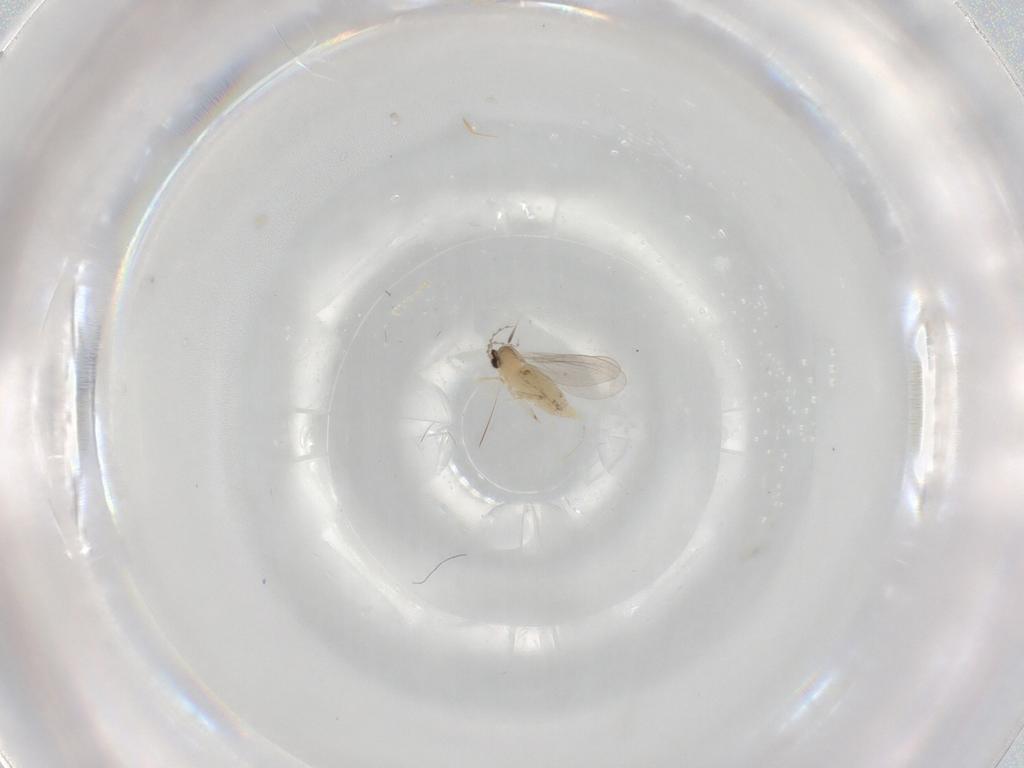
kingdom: Animalia
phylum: Arthropoda
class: Insecta
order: Diptera
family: Cecidomyiidae
